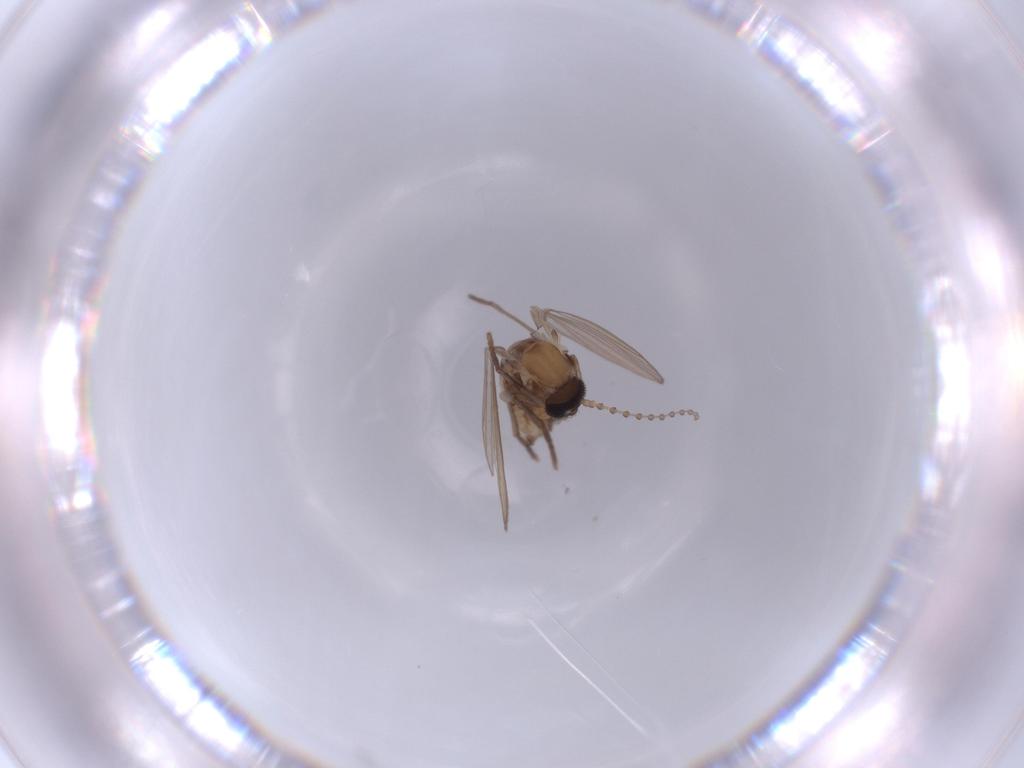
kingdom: Animalia
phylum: Arthropoda
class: Insecta
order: Diptera
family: Psychodidae
